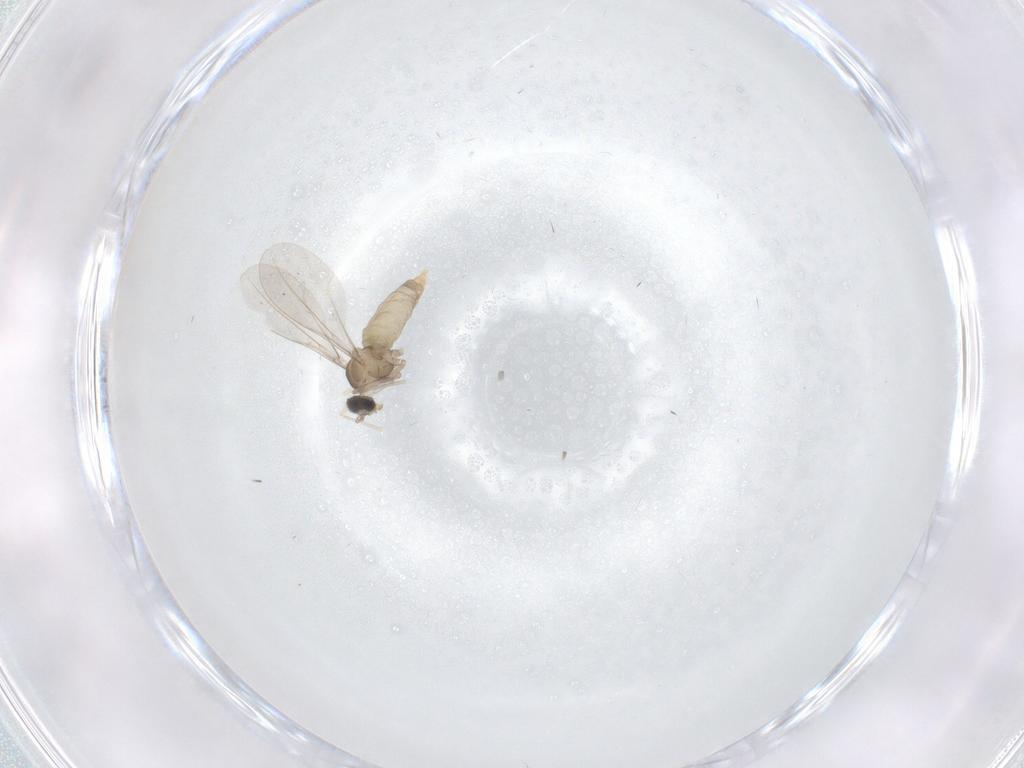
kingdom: Animalia
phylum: Arthropoda
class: Insecta
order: Diptera
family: Cecidomyiidae
